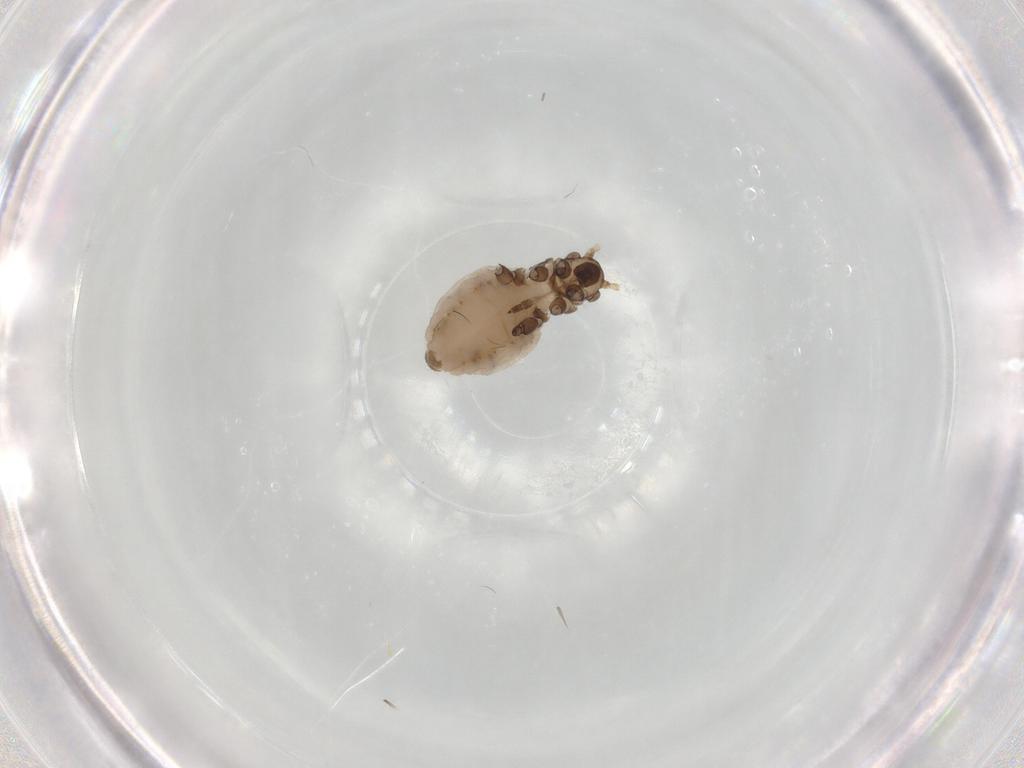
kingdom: Animalia
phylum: Arthropoda
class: Insecta
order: Hemiptera
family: Aphididae
